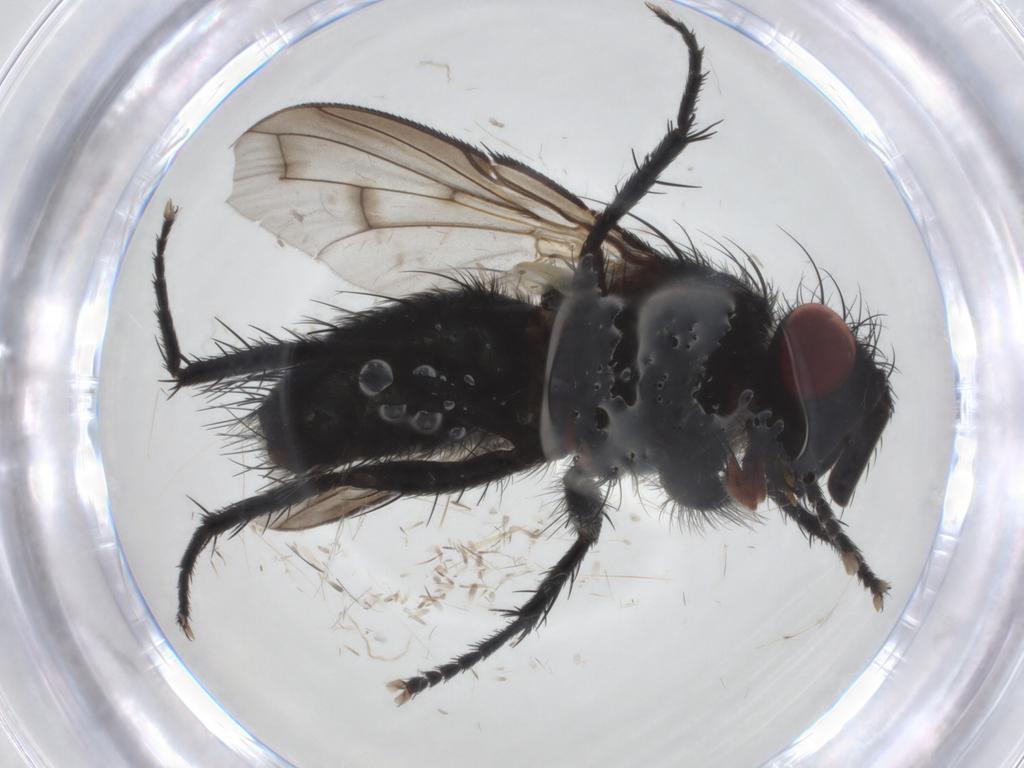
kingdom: Animalia
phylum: Arthropoda
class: Insecta
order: Diptera
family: Tachinidae
